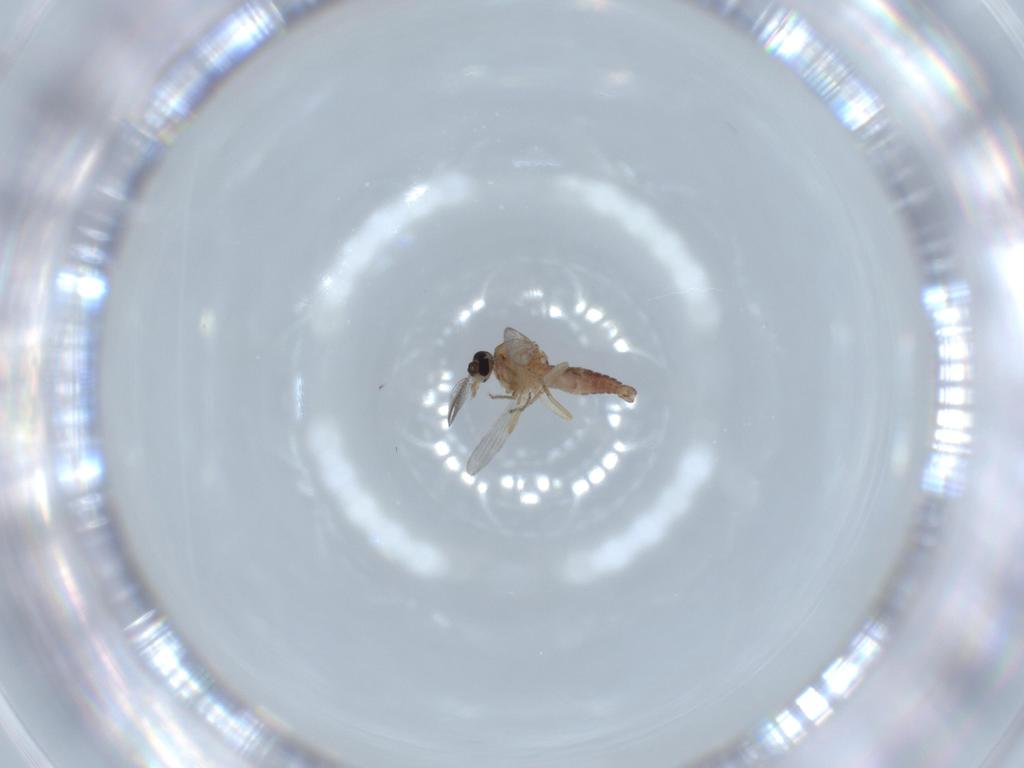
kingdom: Animalia
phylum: Arthropoda
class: Insecta
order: Diptera
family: Ceratopogonidae
